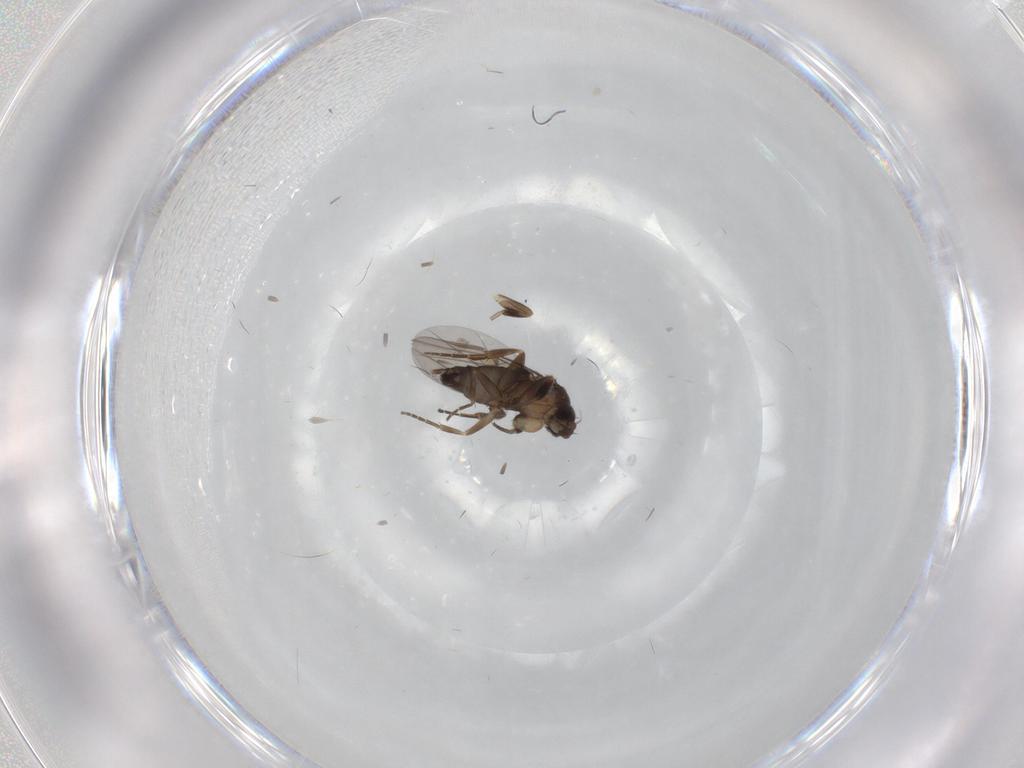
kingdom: Animalia
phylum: Arthropoda
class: Insecta
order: Diptera
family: Phoridae
